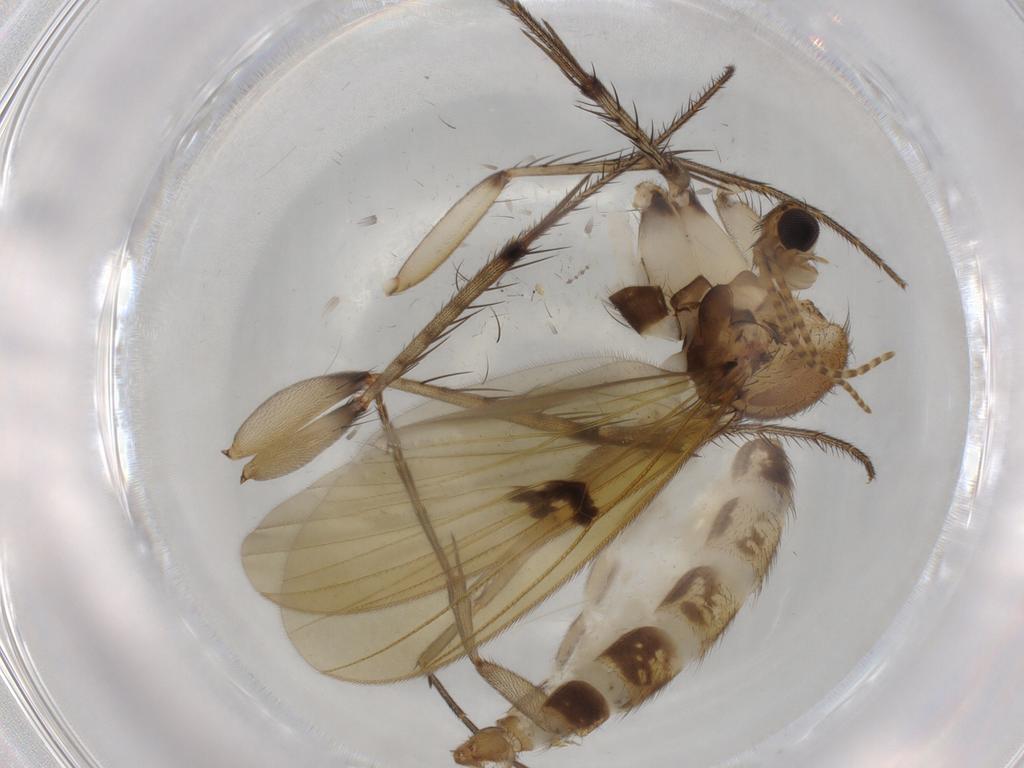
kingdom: Animalia
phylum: Arthropoda
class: Insecta
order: Diptera
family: Mycetophilidae
